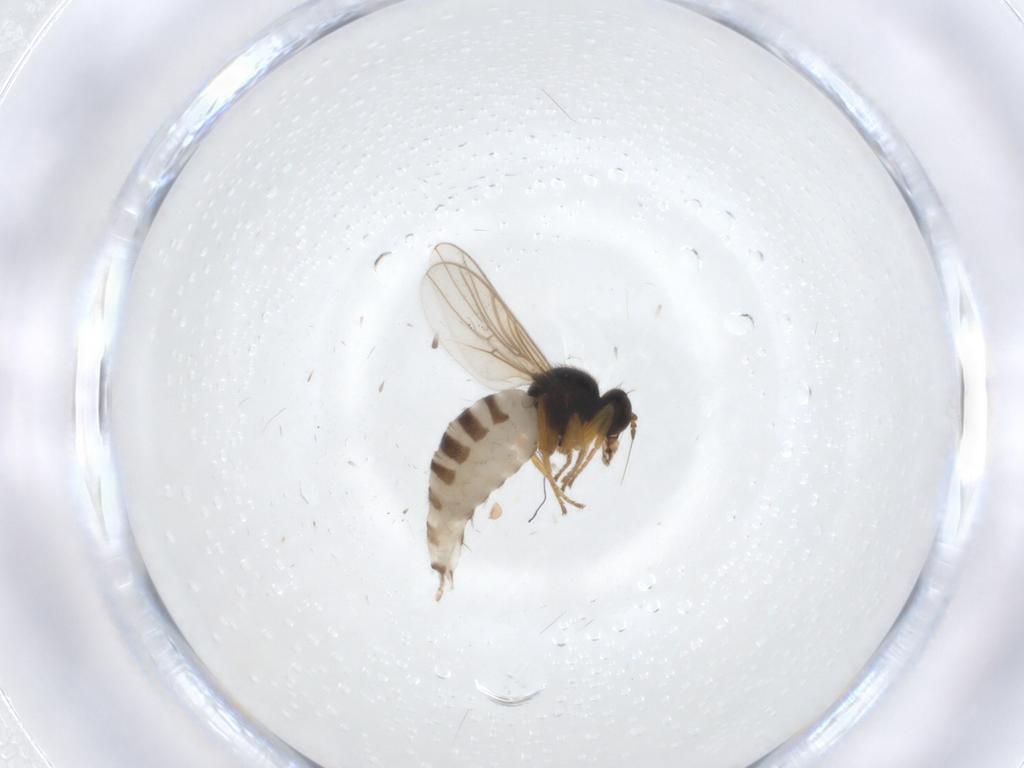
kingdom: Animalia
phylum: Arthropoda
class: Insecta
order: Diptera
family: Hybotidae
